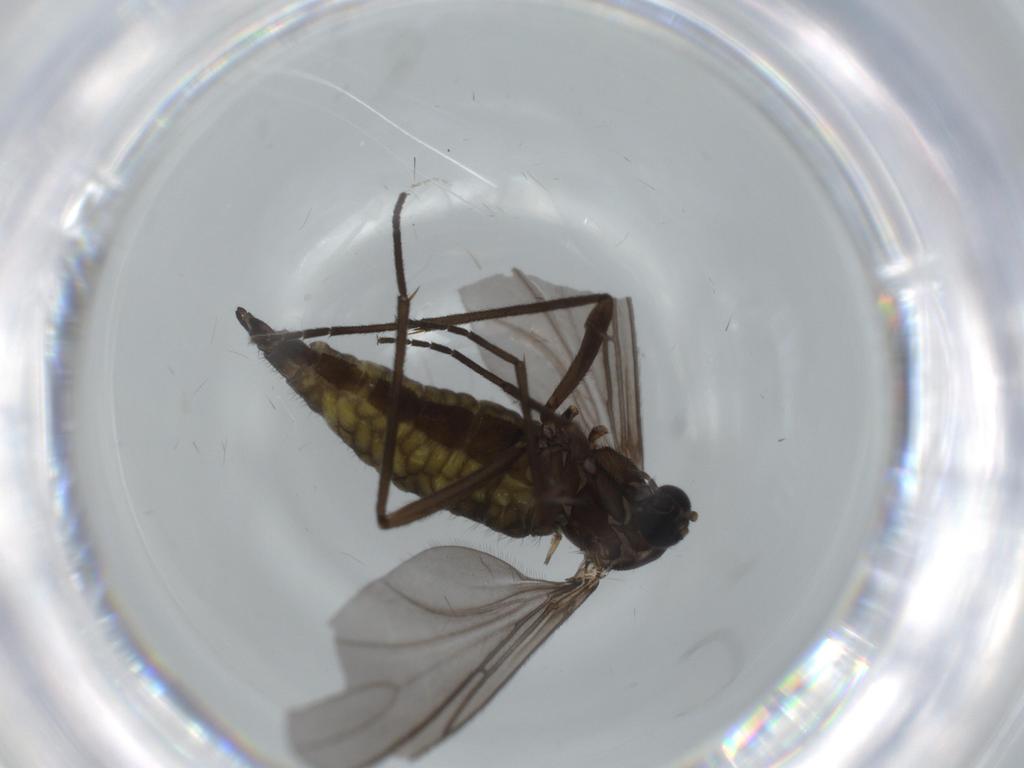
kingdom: Animalia
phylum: Arthropoda
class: Insecta
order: Diptera
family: Sciaridae
